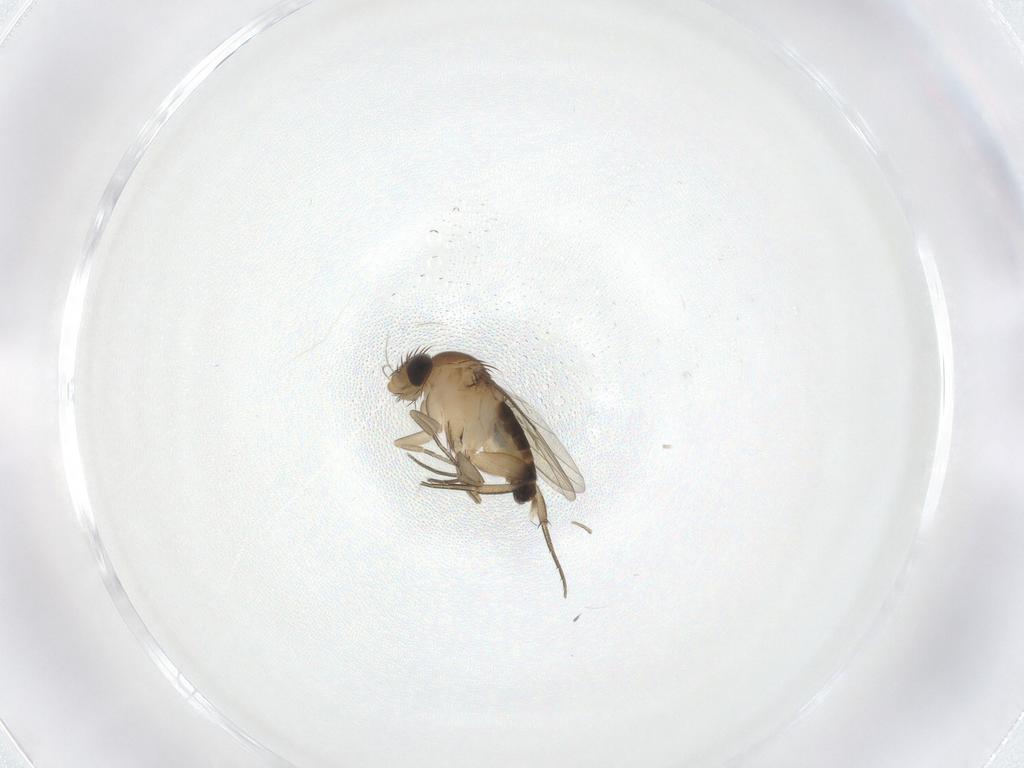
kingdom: Animalia
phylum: Arthropoda
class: Insecta
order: Diptera
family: Phoridae
